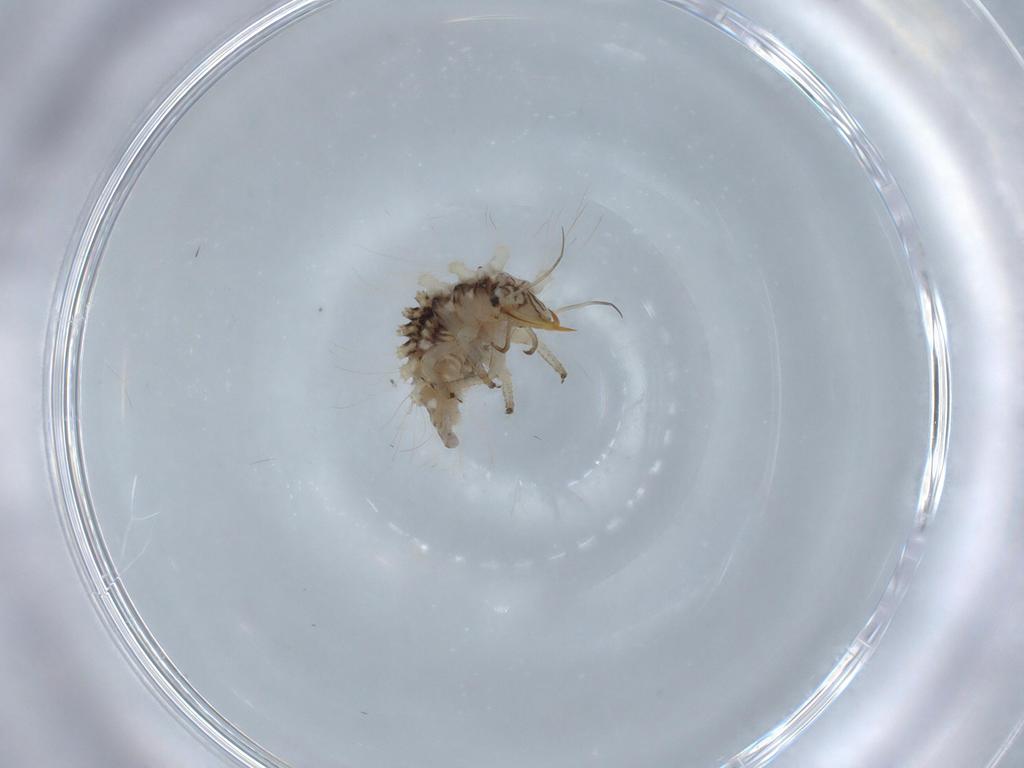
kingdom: Animalia
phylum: Arthropoda
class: Insecta
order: Neuroptera
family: Chrysopidae
